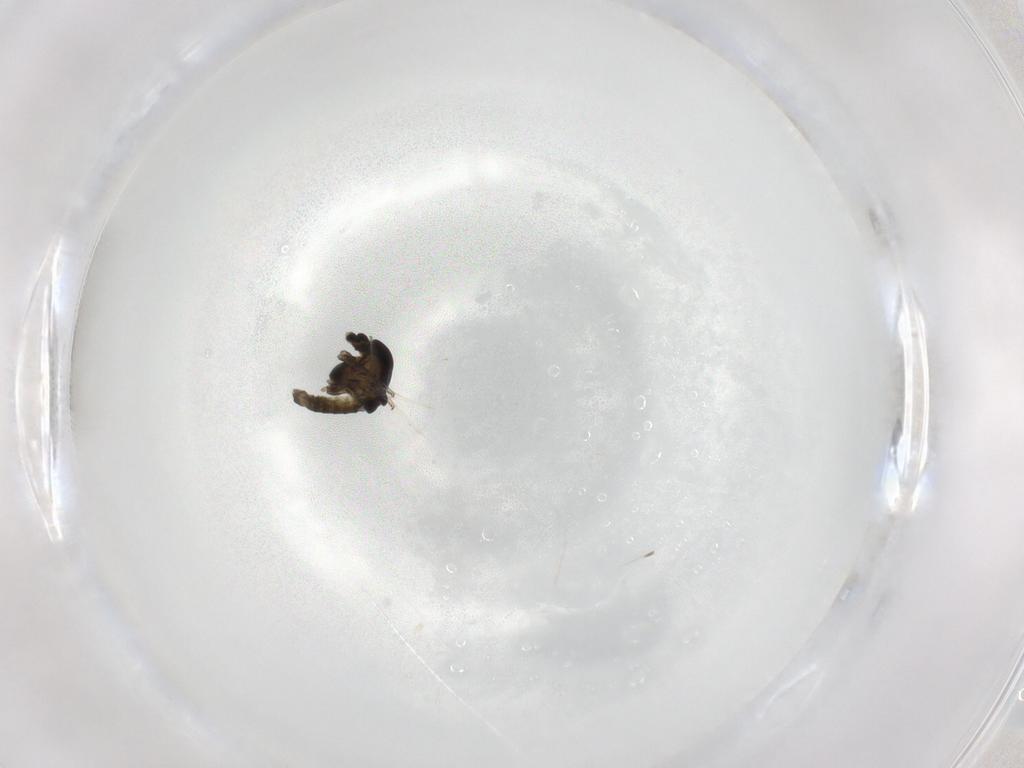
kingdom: Animalia
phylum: Arthropoda
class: Insecta
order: Diptera
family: Chironomidae
